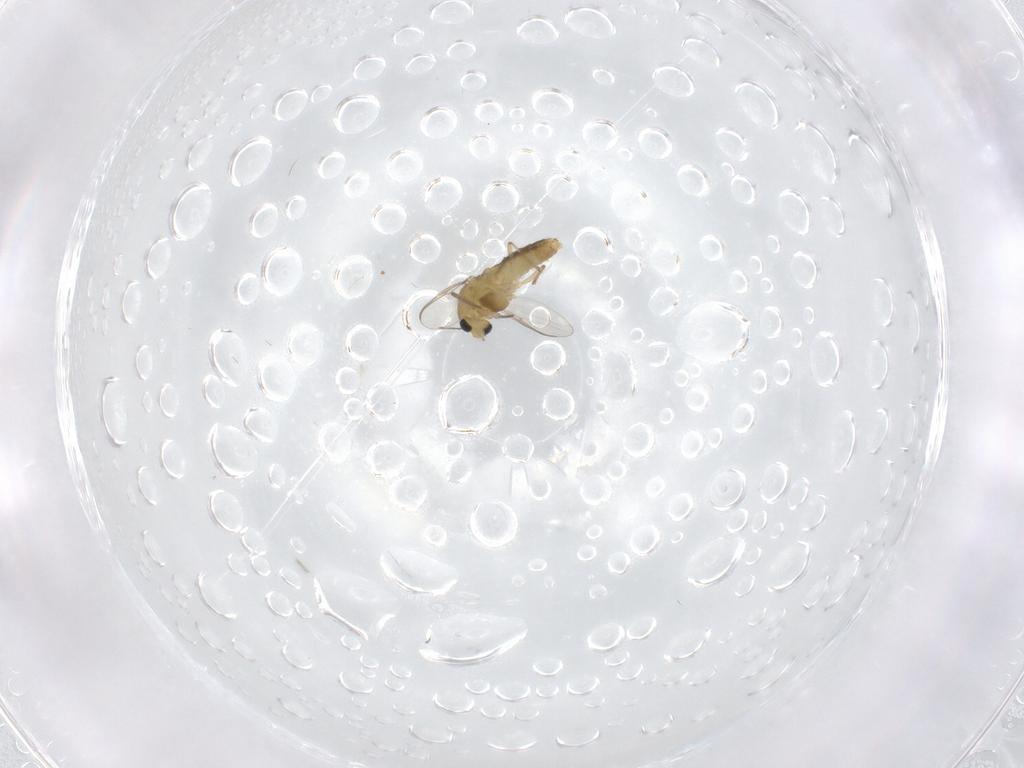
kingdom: Animalia
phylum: Arthropoda
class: Insecta
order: Diptera
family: Chironomidae
